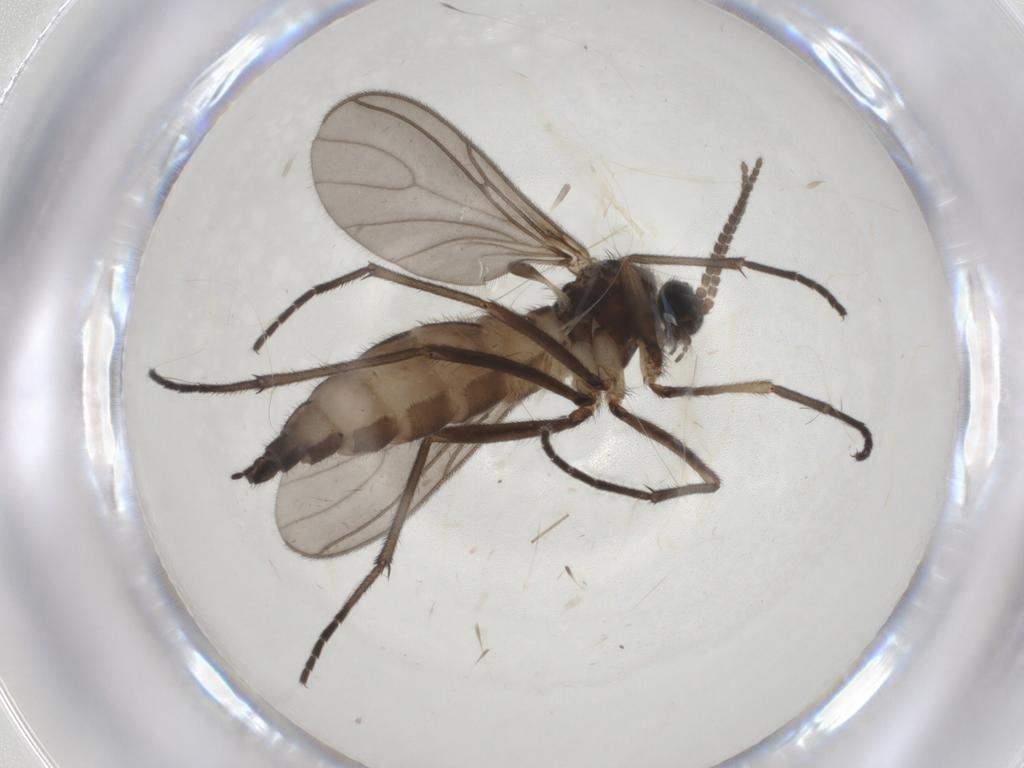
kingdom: Animalia
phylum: Arthropoda
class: Insecta
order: Diptera
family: Sciaridae
